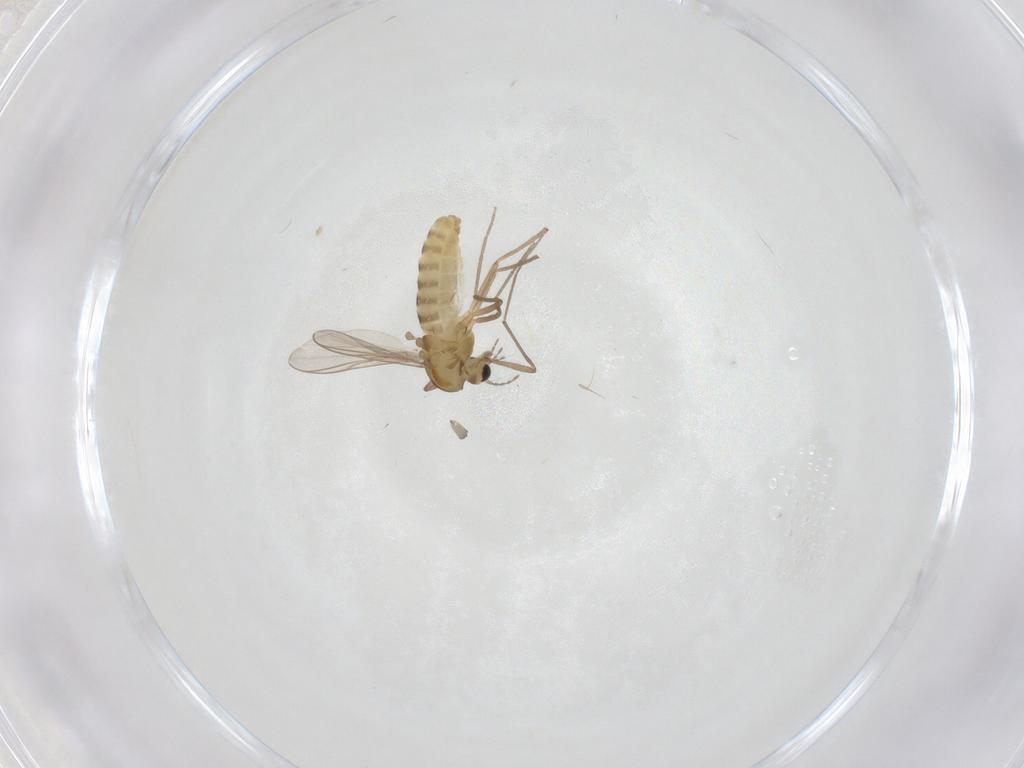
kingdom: Animalia
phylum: Arthropoda
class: Insecta
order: Diptera
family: Chironomidae
